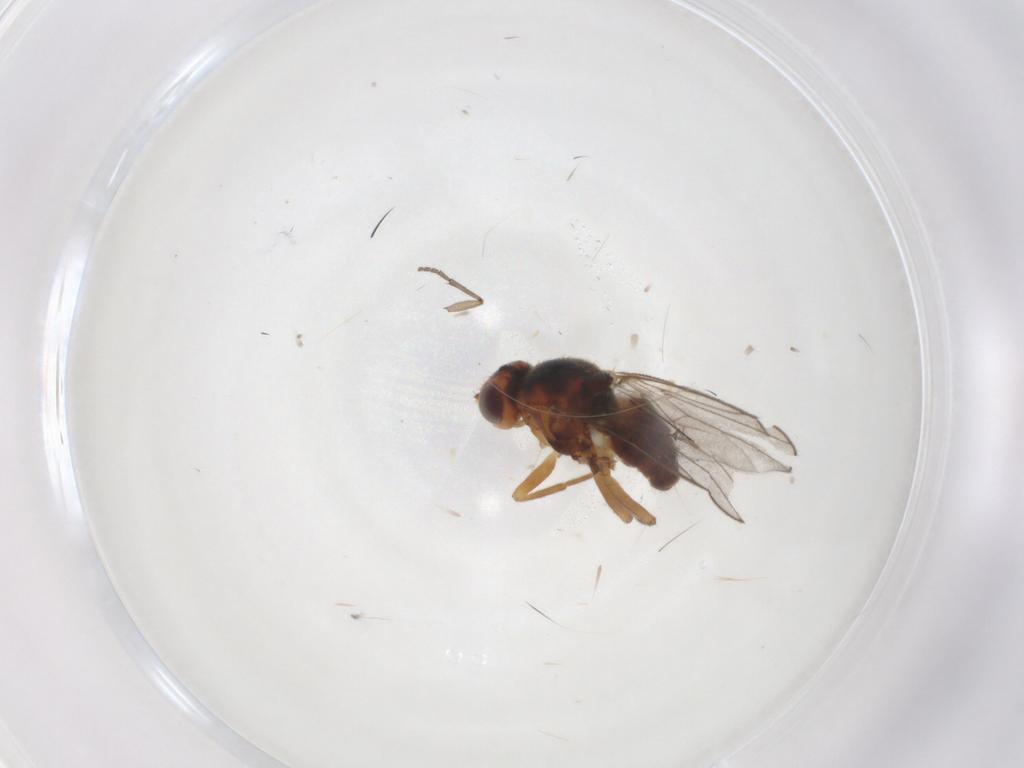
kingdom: Animalia
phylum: Arthropoda
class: Insecta
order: Diptera
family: Chloropidae
